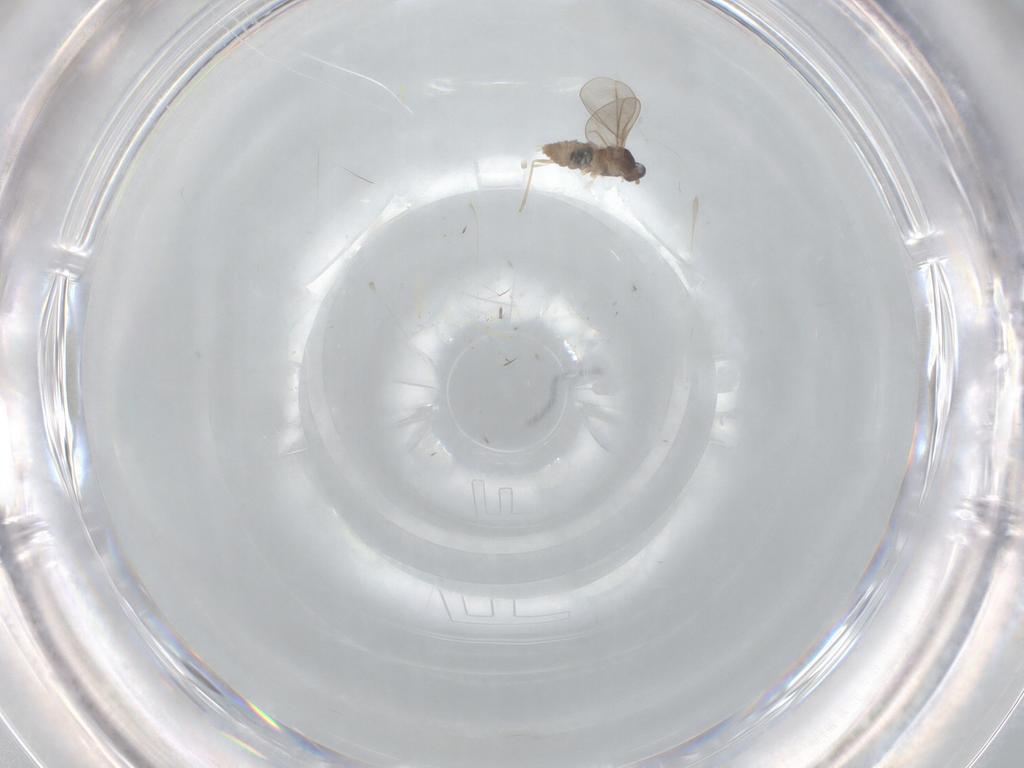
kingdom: Animalia
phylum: Arthropoda
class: Insecta
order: Diptera
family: Cecidomyiidae
